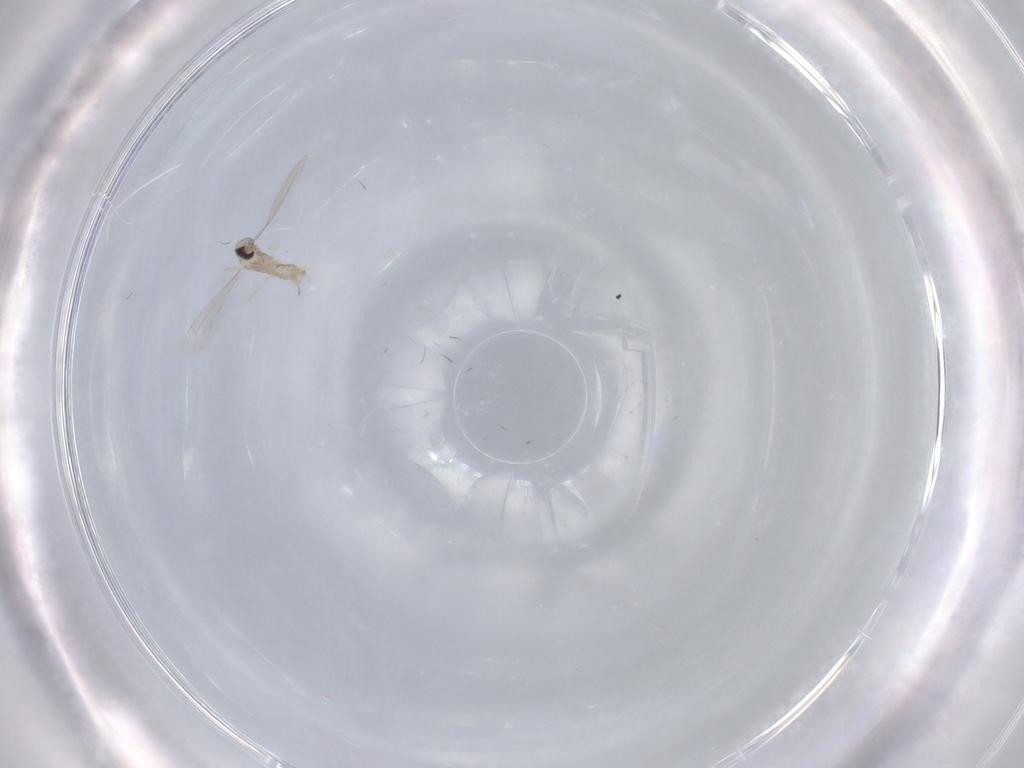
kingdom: Animalia
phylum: Arthropoda
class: Insecta
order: Diptera
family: Cecidomyiidae
